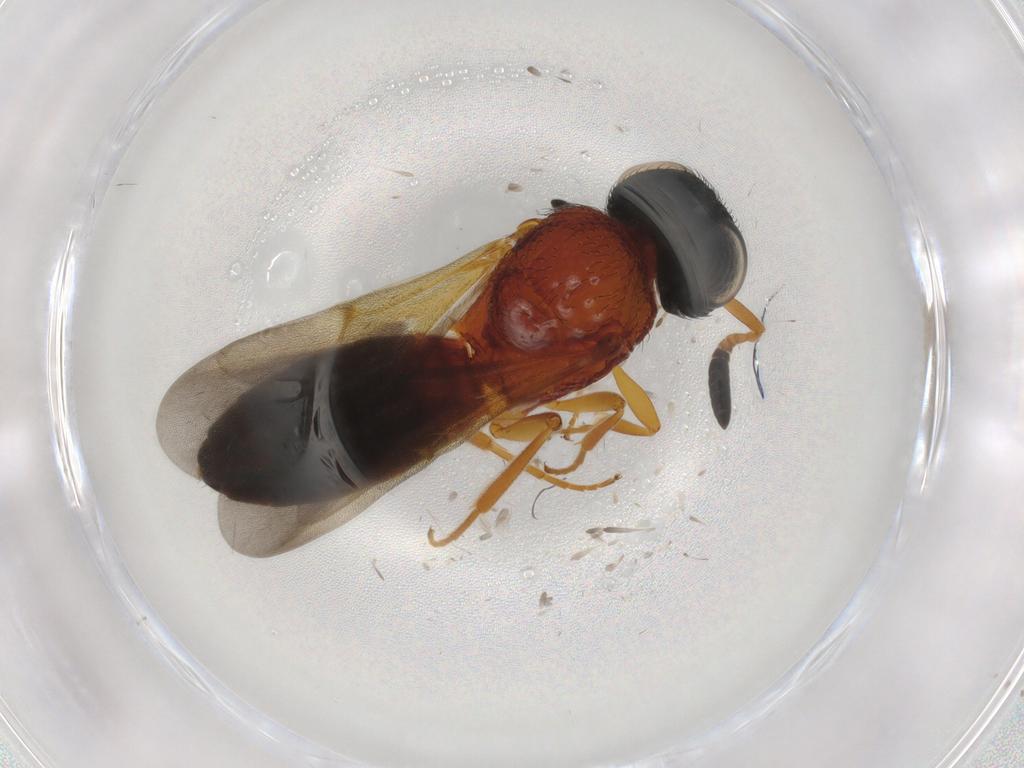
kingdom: Animalia
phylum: Arthropoda
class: Insecta
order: Hymenoptera
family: Scelionidae
